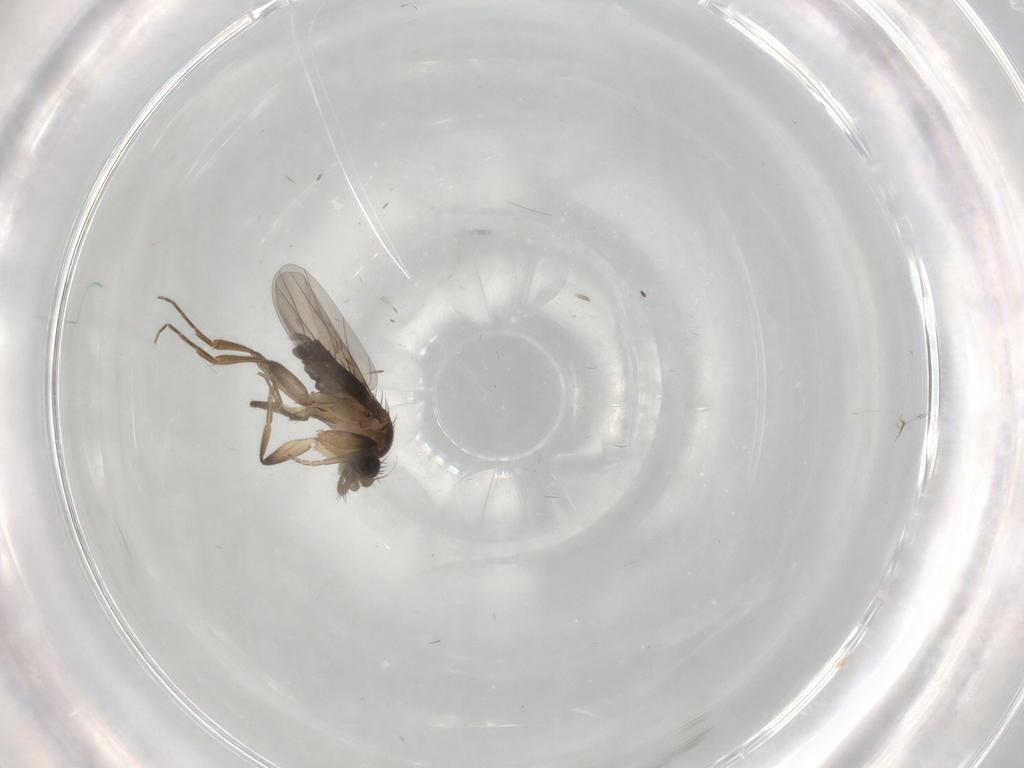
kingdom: Animalia
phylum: Arthropoda
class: Insecta
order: Diptera
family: Phoridae
